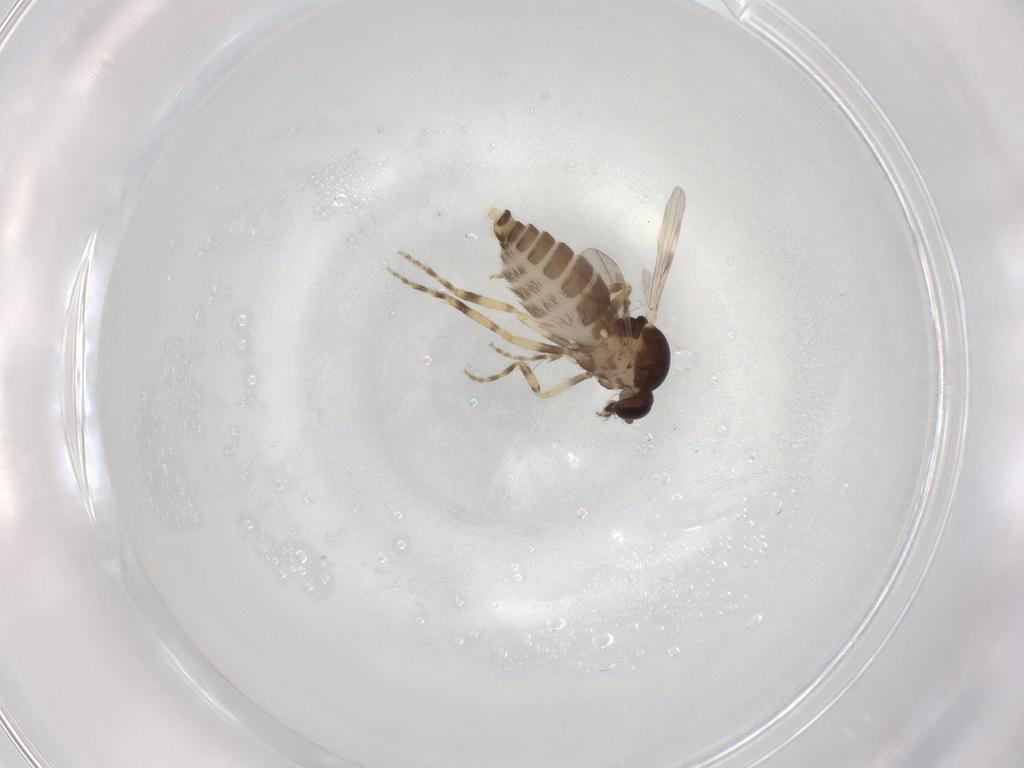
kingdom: Animalia
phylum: Arthropoda
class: Insecta
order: Diptera
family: Ceratopogonidae
